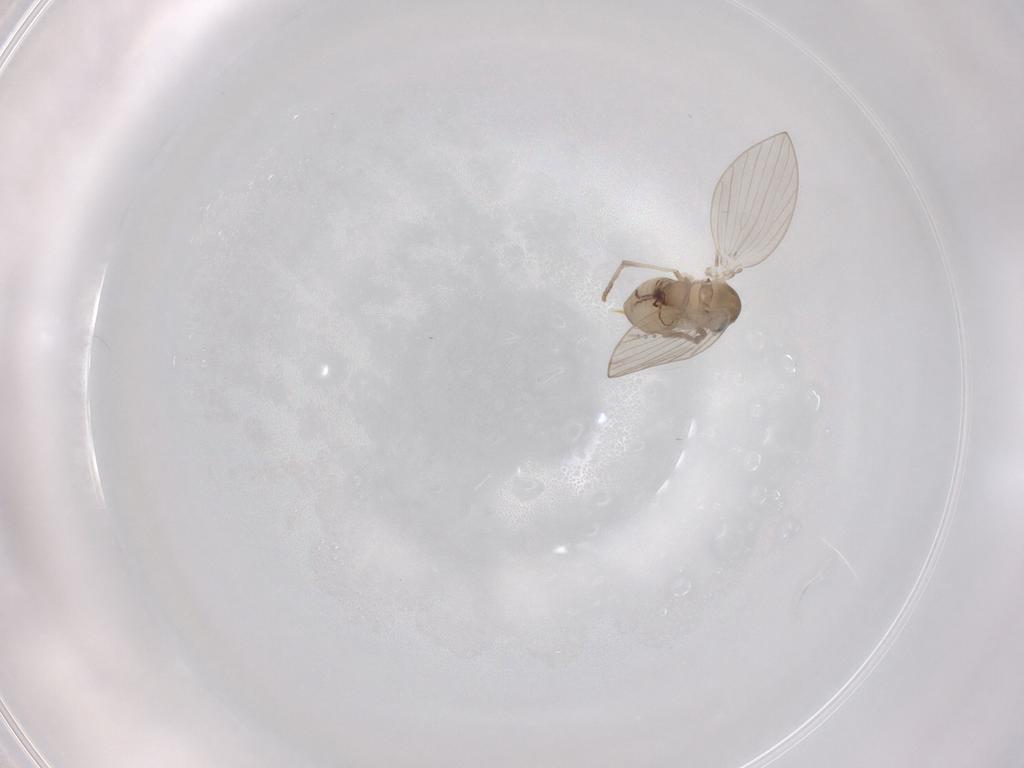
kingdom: Animalia
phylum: Arthropoda
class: Insecta
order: Diptera
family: Psychodidae
